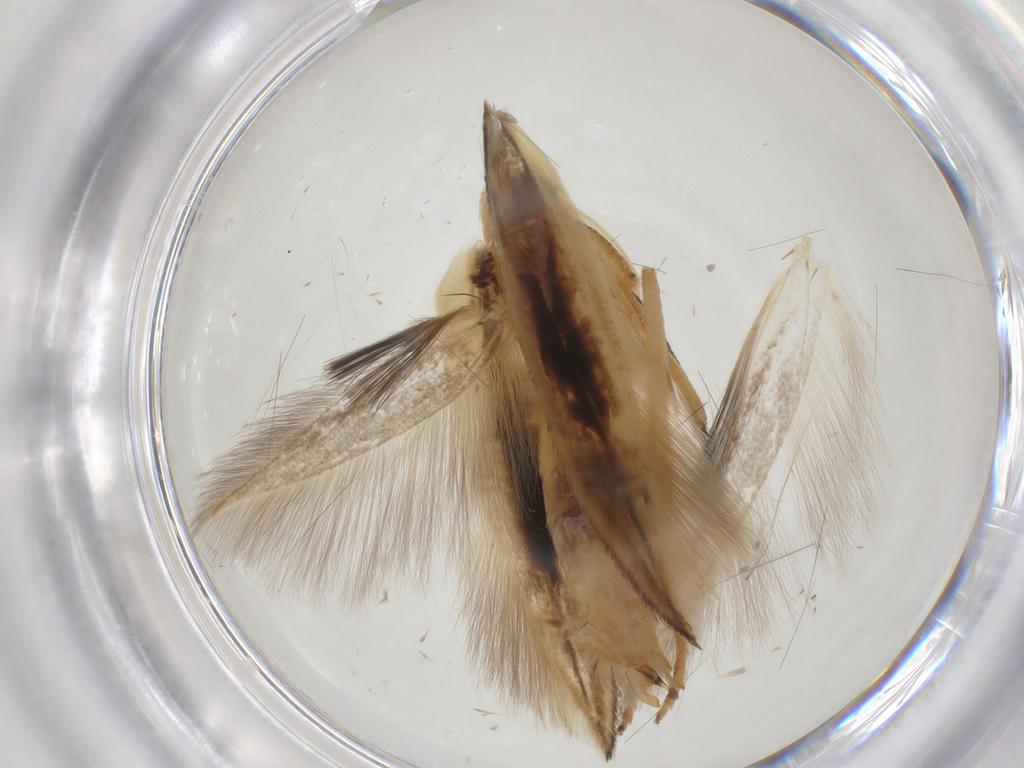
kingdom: Animalia
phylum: Arthropoda
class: Insecta
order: Lepidoptera
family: Momphidae
